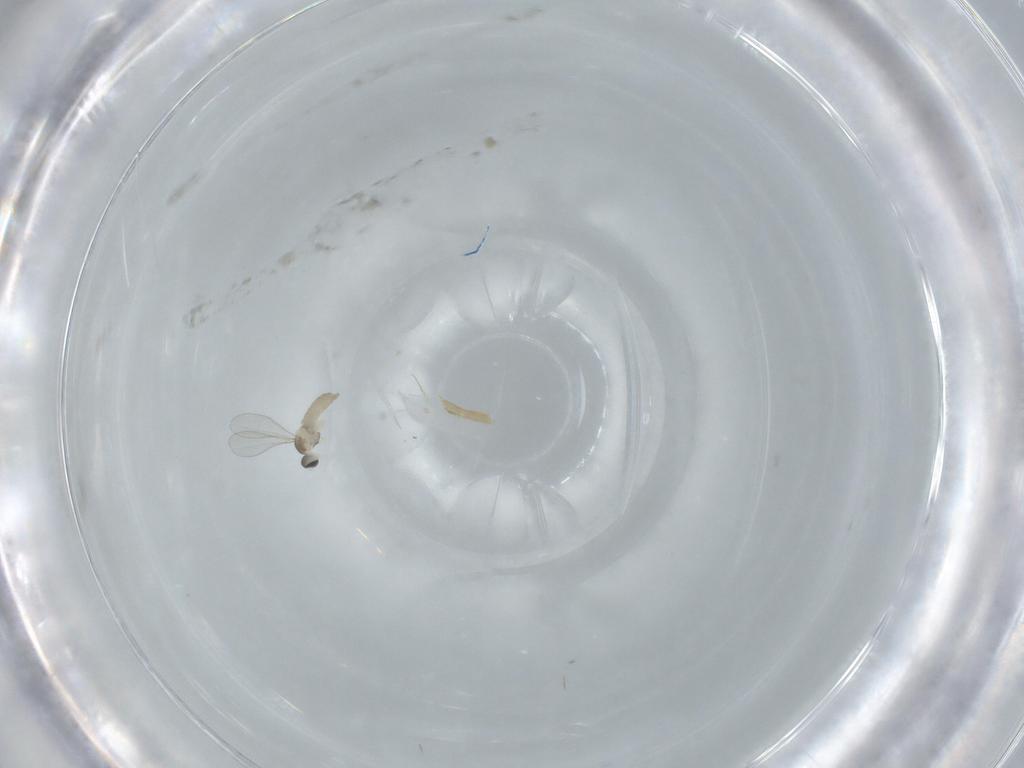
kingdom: Animalia
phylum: Arthropoda
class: Insecta
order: Diptera
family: Cecidomyiidae
